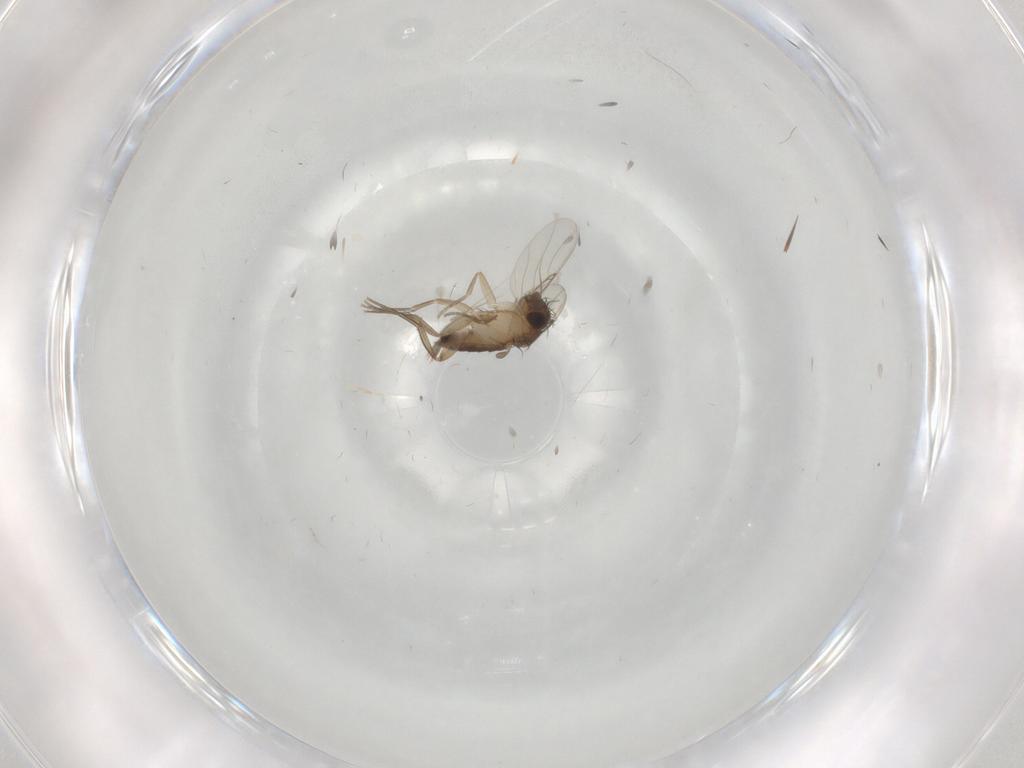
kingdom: Animalia
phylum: Arthropoda
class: Insecta
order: Diptera
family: Phoridae
